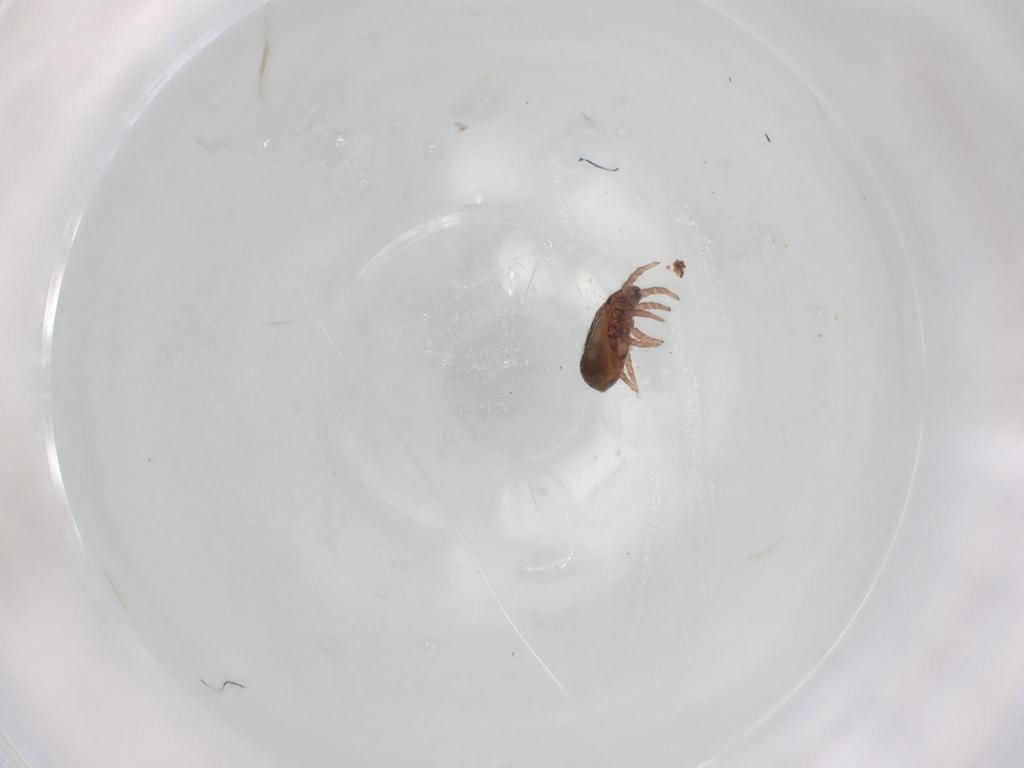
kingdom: Animalia
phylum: Arthropoda
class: Arachnida
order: Sarcoptiformes
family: Crotoniidae
